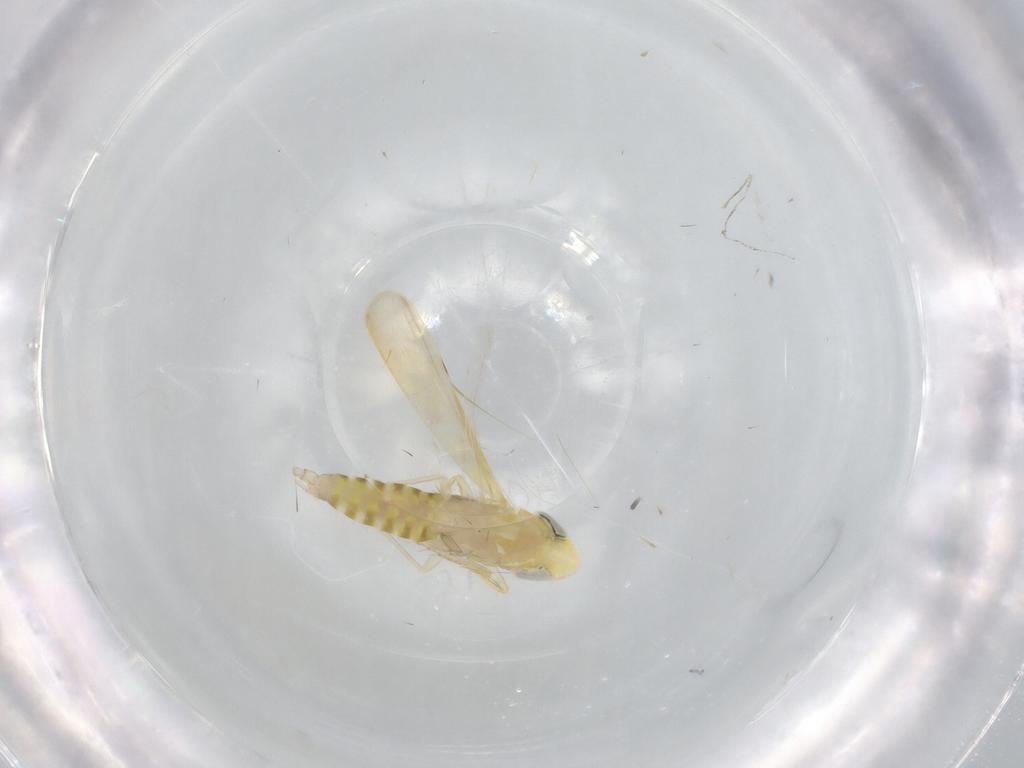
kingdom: Animalia
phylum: Arthropoda
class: Insecta
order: Hemiptera
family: Cicadellidae
